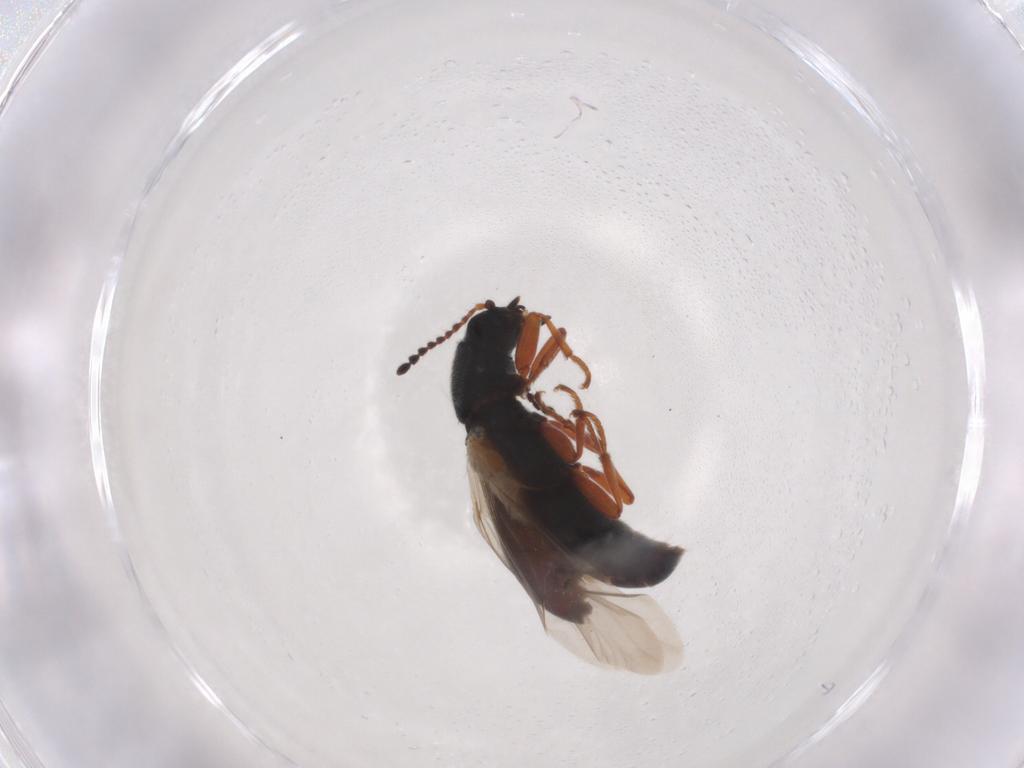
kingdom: Animalia
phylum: Arthropoda
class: Insecta
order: Coleoptera
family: Melyridae
